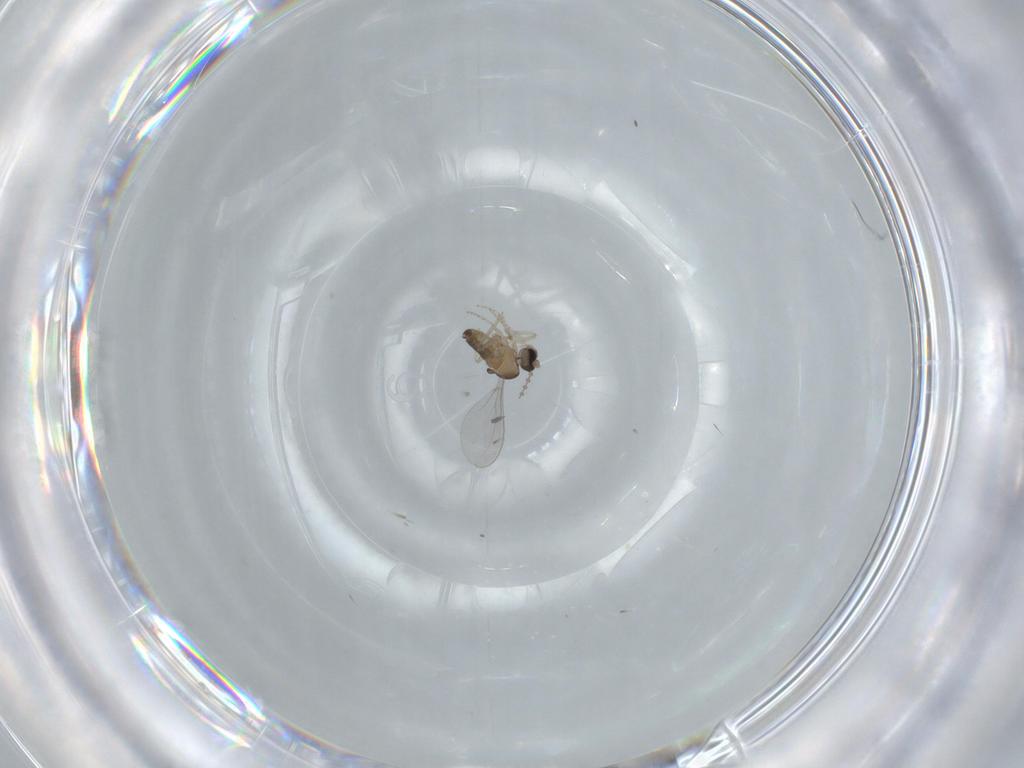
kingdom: Animalia
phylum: Arthropoda
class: Insecta
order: Diptera
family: Cecidomyiidae
